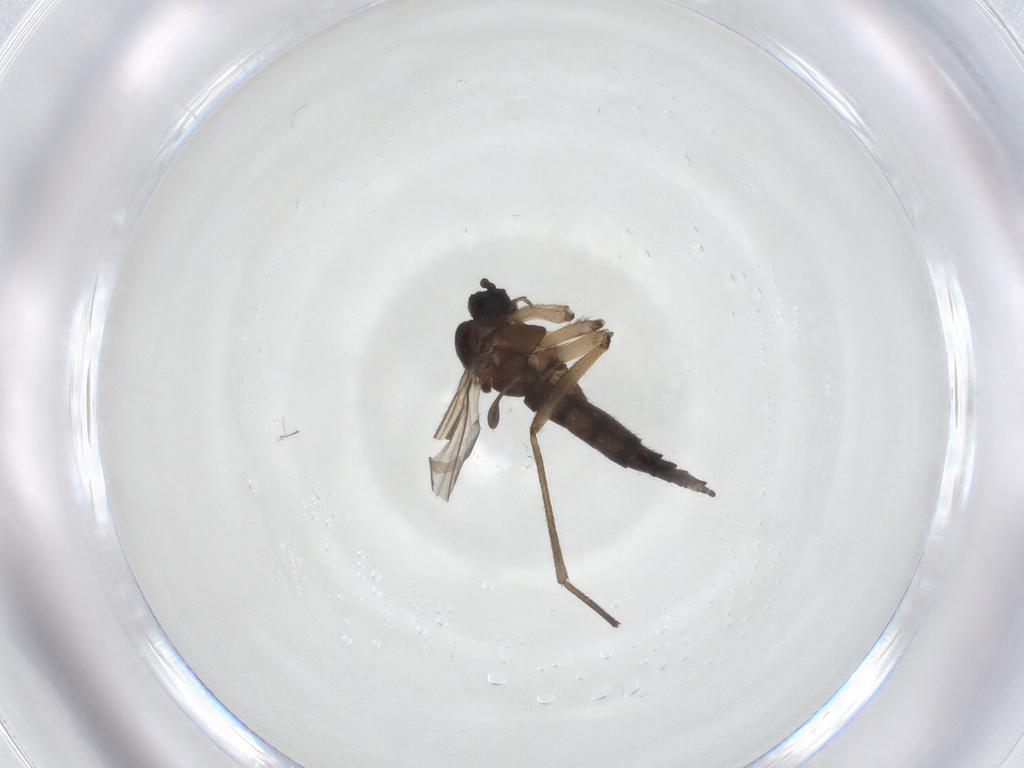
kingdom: Animalia
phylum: Arthropoda
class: Insecta
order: Diptera
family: Sciaridae
